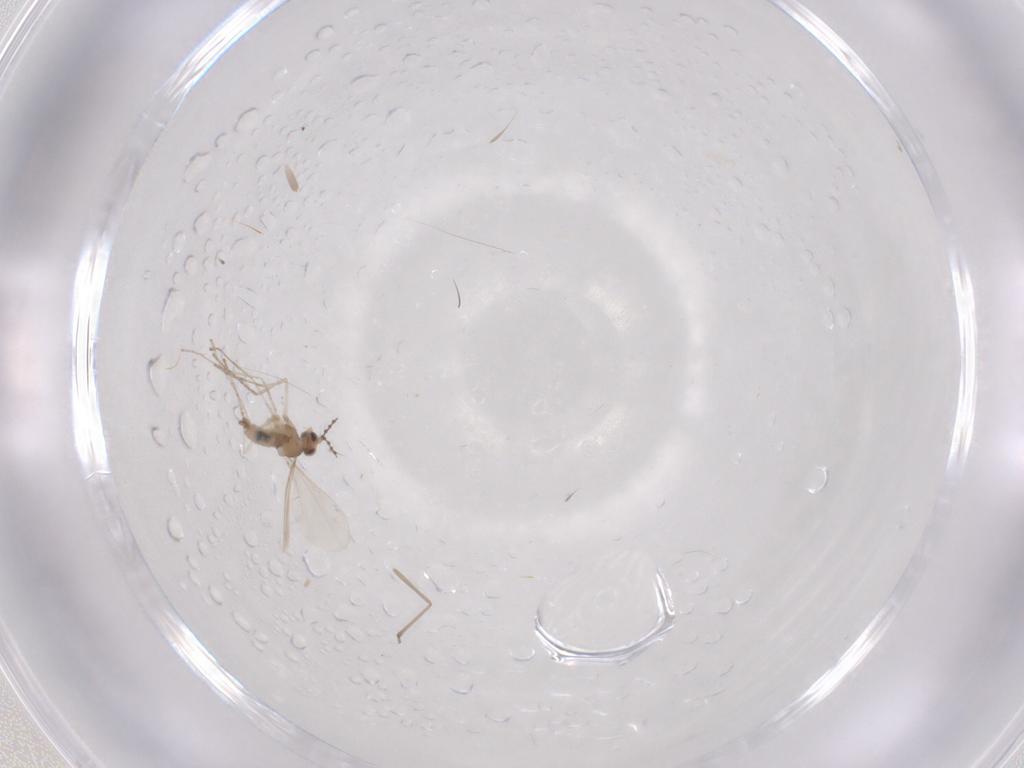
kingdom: Animalia
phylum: Arthropoda
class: Insecta
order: Diptera
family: Cecidomyiidae
